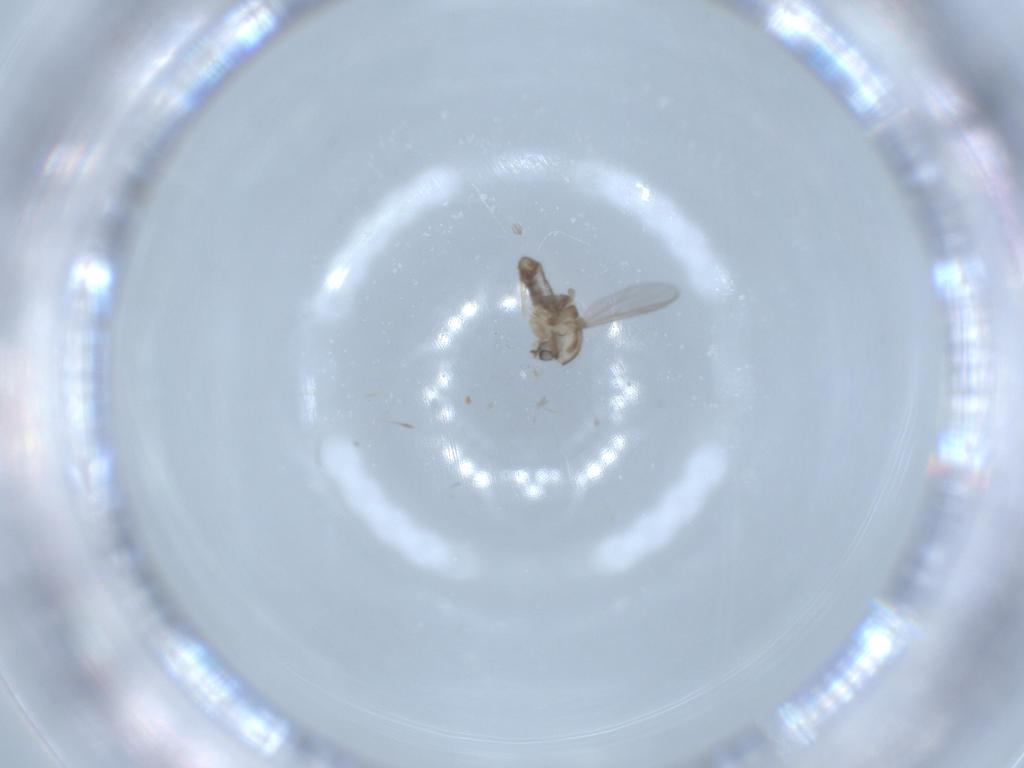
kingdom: Animalia
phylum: Arthropoda
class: Insecta
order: Diptera
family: Chironomidae
